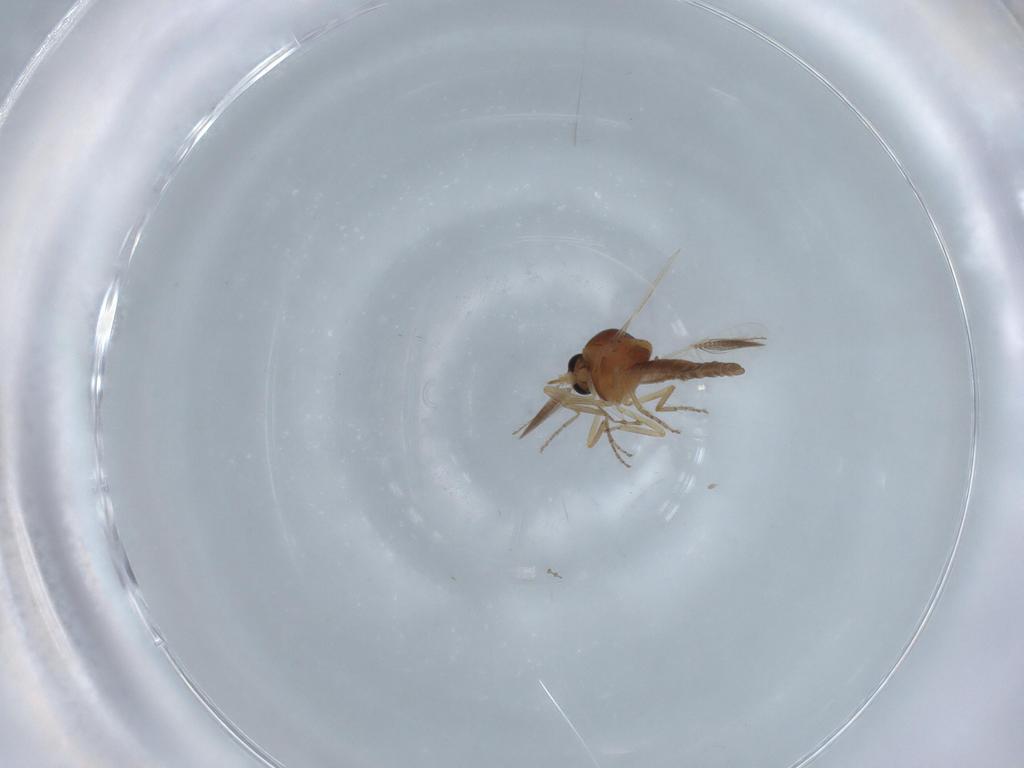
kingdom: Animalia
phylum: Arthropoda
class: Insecta
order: Diptera
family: Ceratopogonidae
